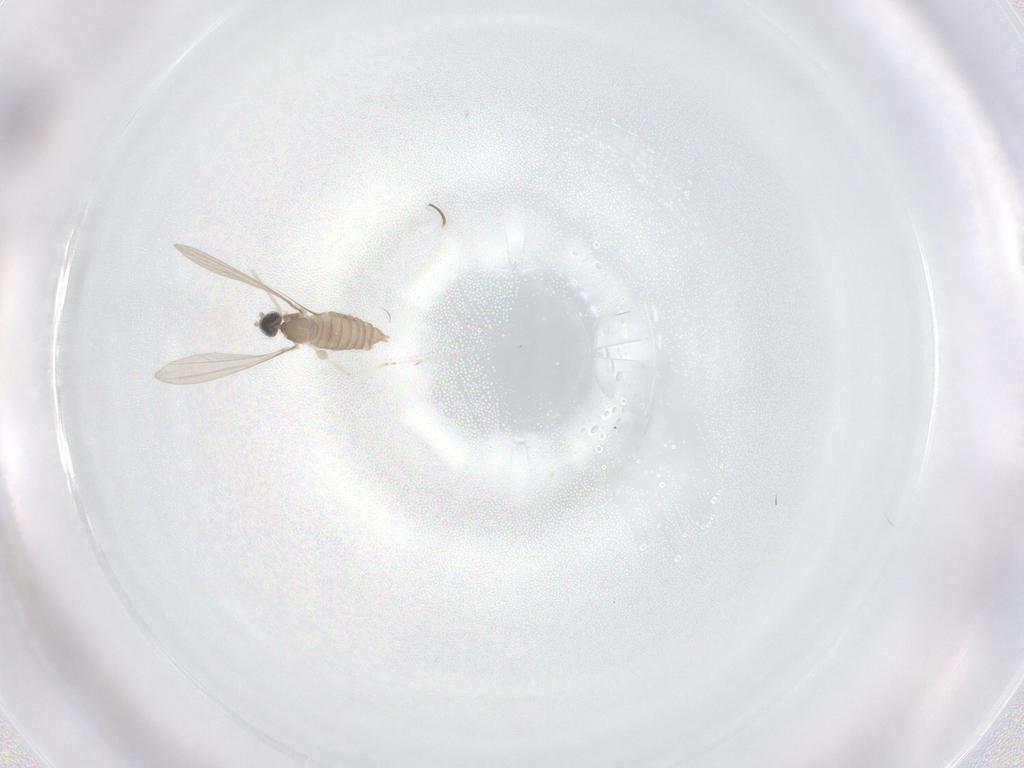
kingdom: Animalia
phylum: Arthropoda
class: Insecta
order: Diptera
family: Cecidomyiidae
